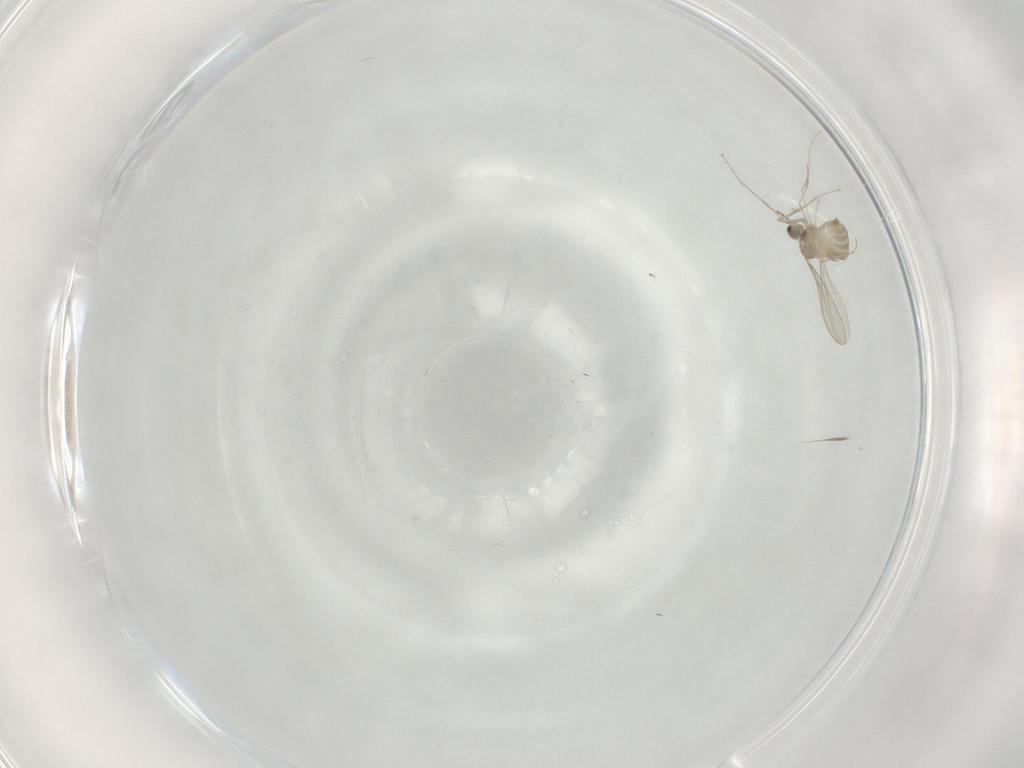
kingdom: Animalia
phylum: Arthropoda
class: Insecta
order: Diptera
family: Cecidomyiidae
